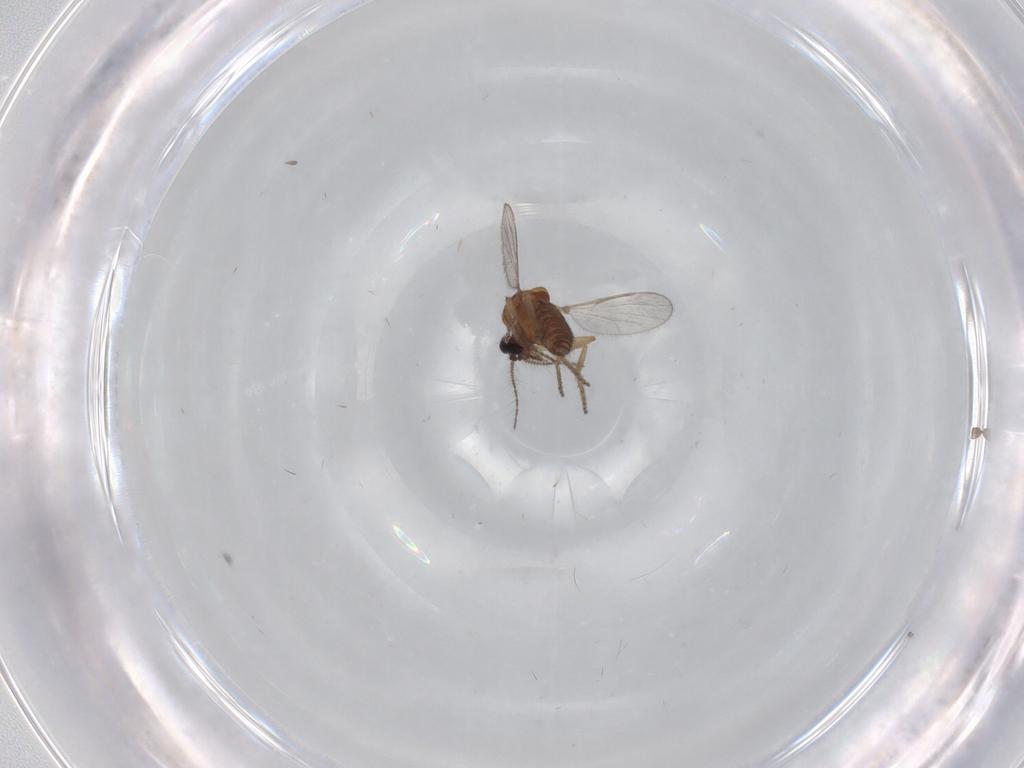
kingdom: Animalia
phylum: Arthropoda
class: Insecta
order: Diptera
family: Ceratopogonidae
